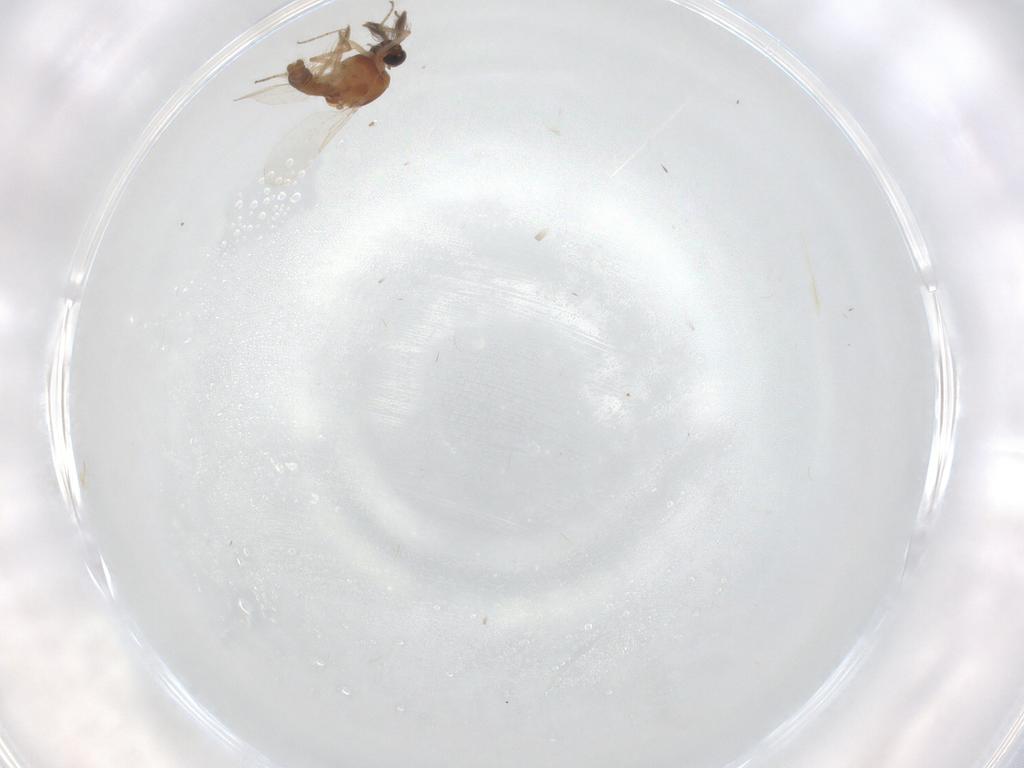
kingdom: Animalia
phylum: Arthropoda
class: Insecta
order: Diptera
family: Ceratopogonidae
